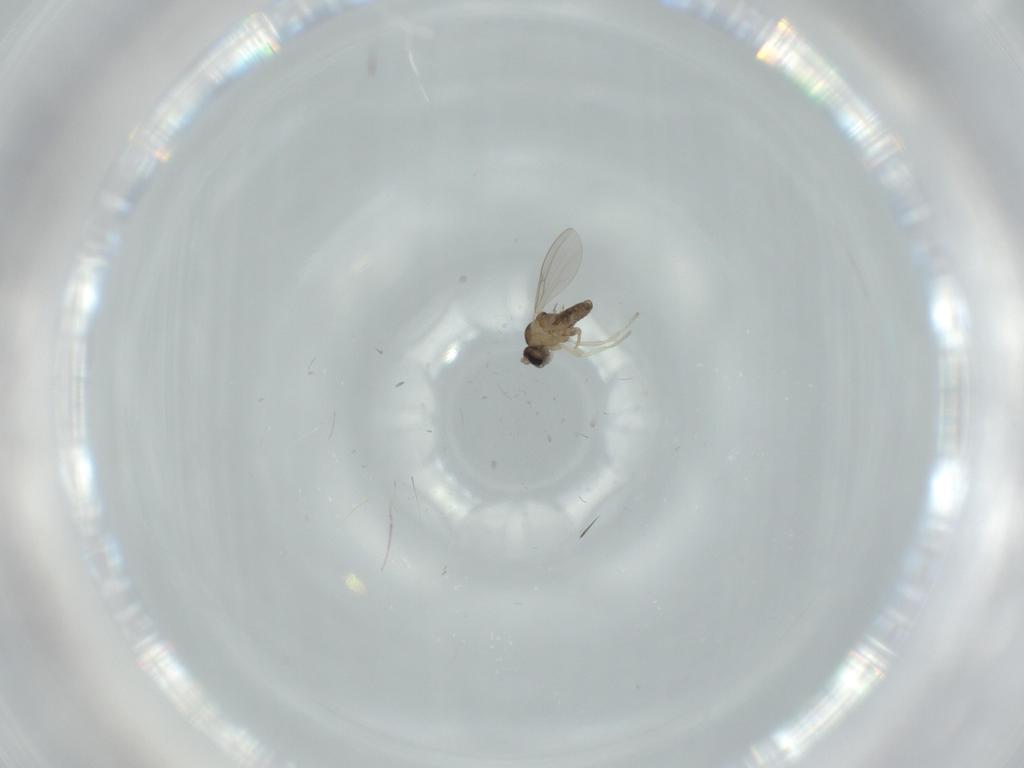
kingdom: Animalia
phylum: Arthropoda
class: Insecta
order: Diptera
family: Cecidomyiidae
